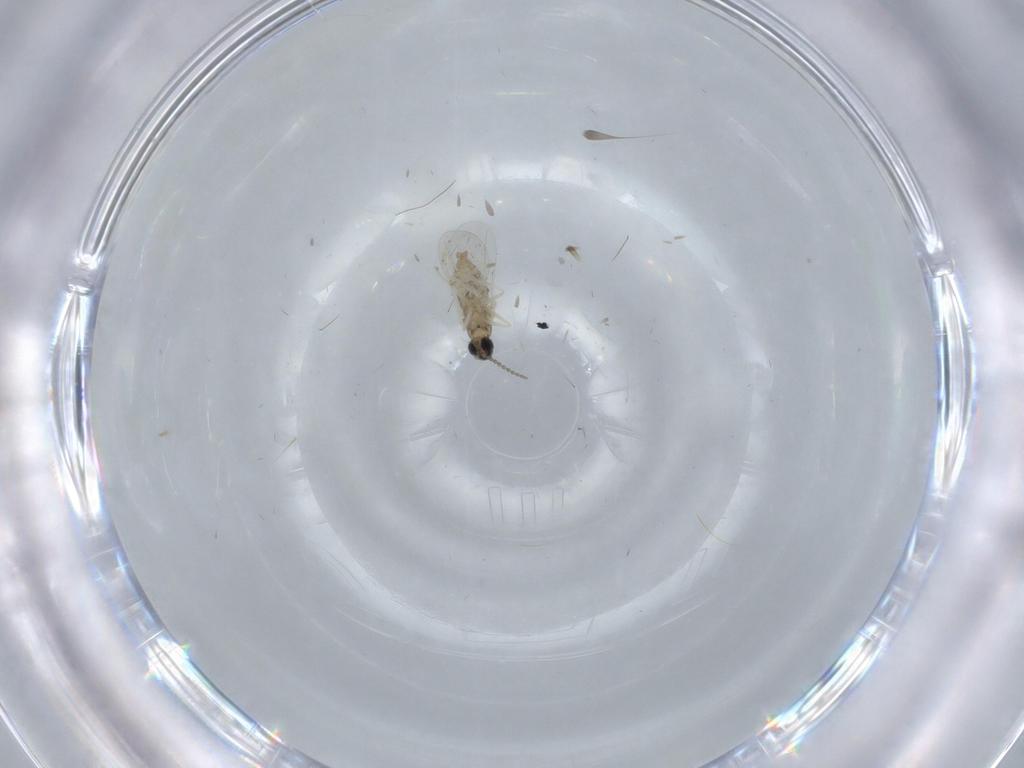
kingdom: Animalia
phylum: Arthropoda
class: Insecta
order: Diptera
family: Cecidomyiidae
